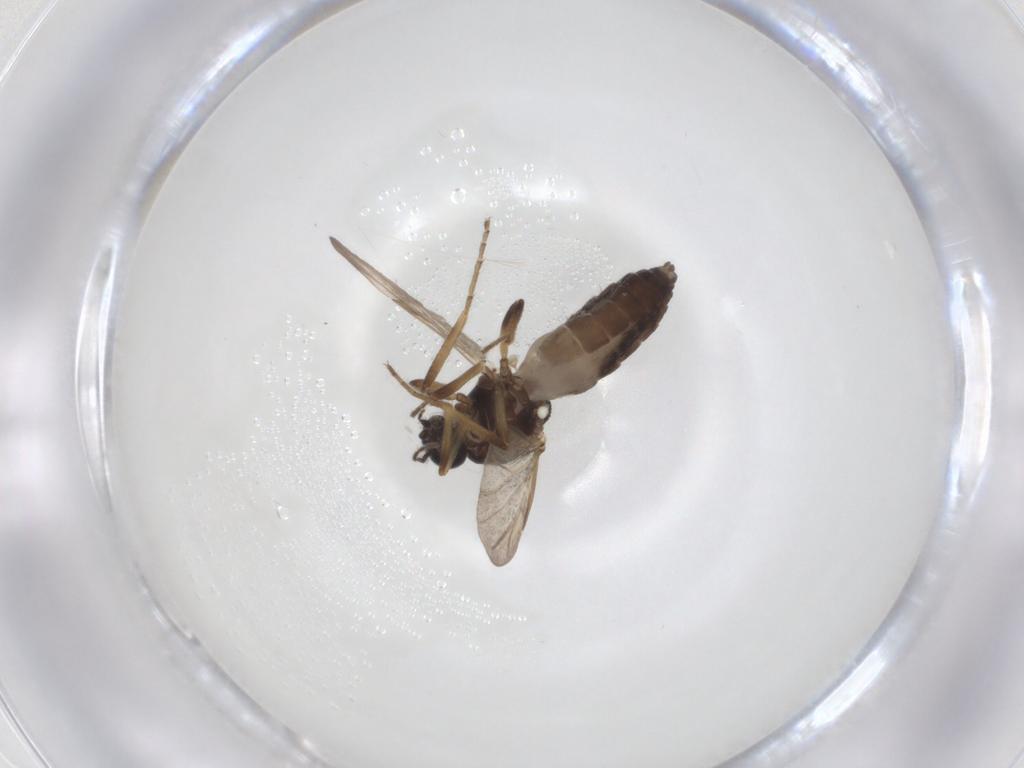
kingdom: Animalia
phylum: Arthropoda
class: Insecta
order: Diptera
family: Ceratopogonidae
